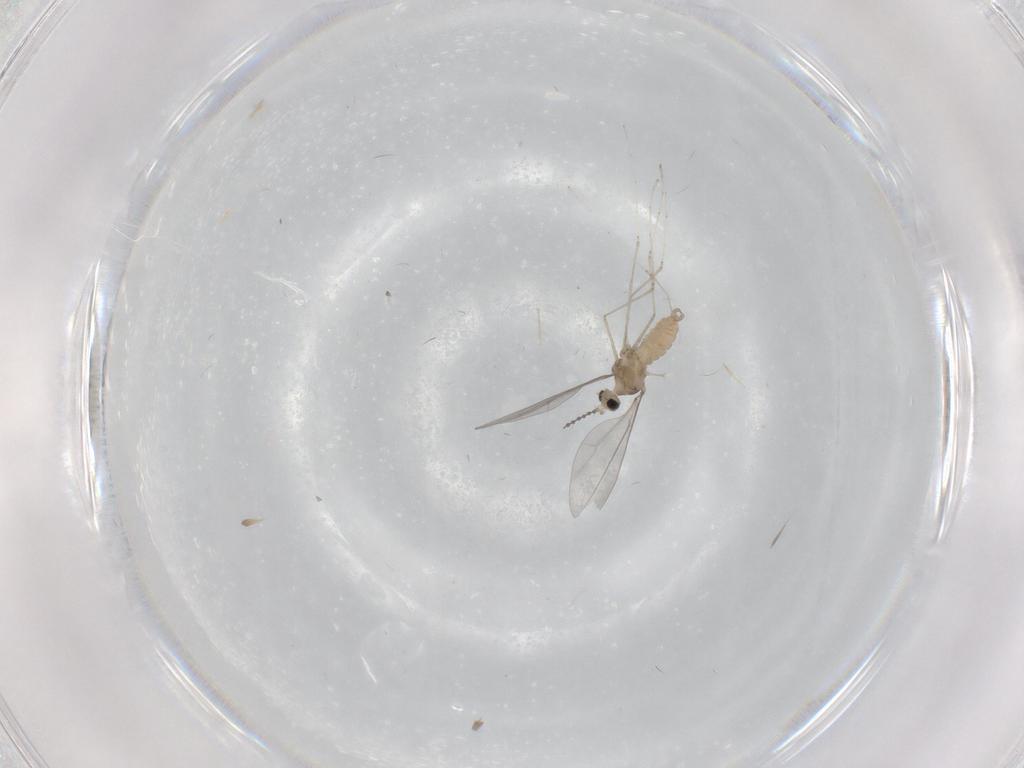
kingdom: Animalia
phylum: Arthropoda
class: Insecta
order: Diptera
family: Cecidomyiidae
